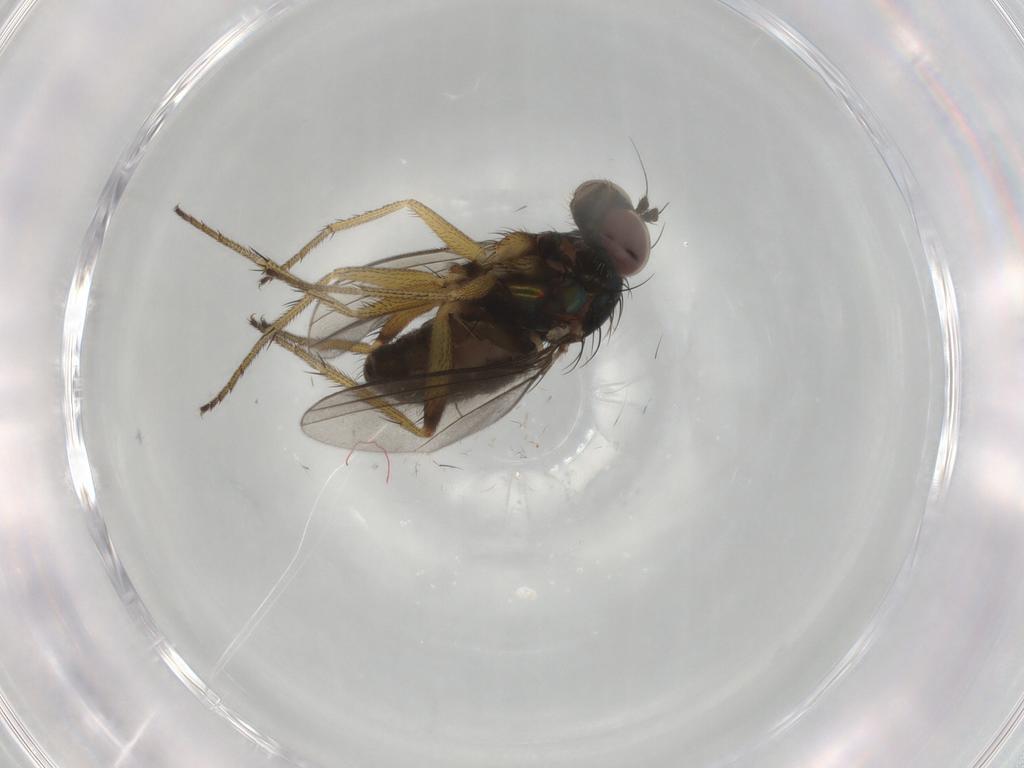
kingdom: Animalia
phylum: Arthropoda
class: Insecta
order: Diptera
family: Dolichopodidae
